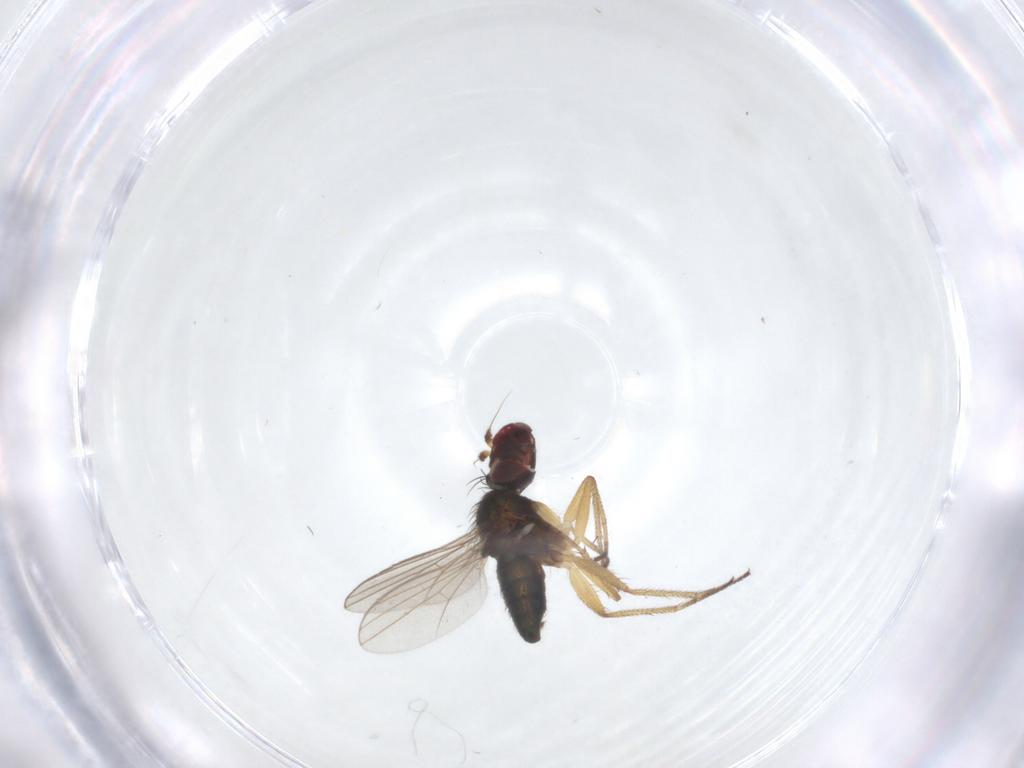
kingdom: Animalia
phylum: Arthropoda
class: Insecta
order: Diptera
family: Dolichopodidae
